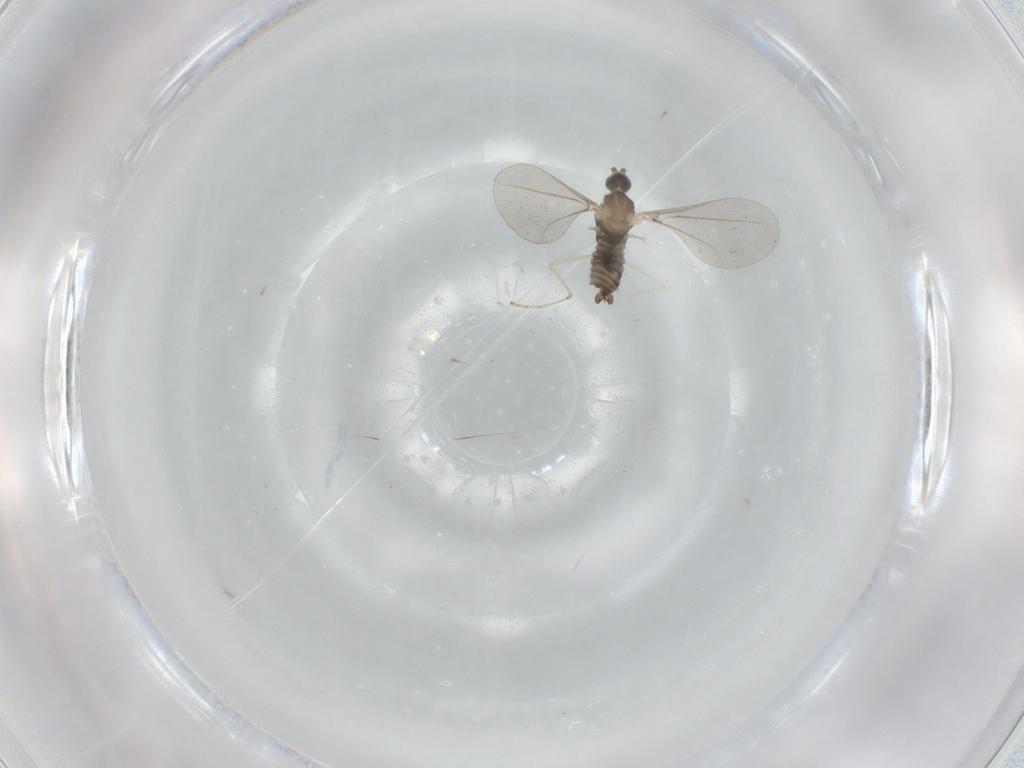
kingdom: Animalia
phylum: Arthropoda
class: Insecta
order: Diptera
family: Cecidomyiidae
